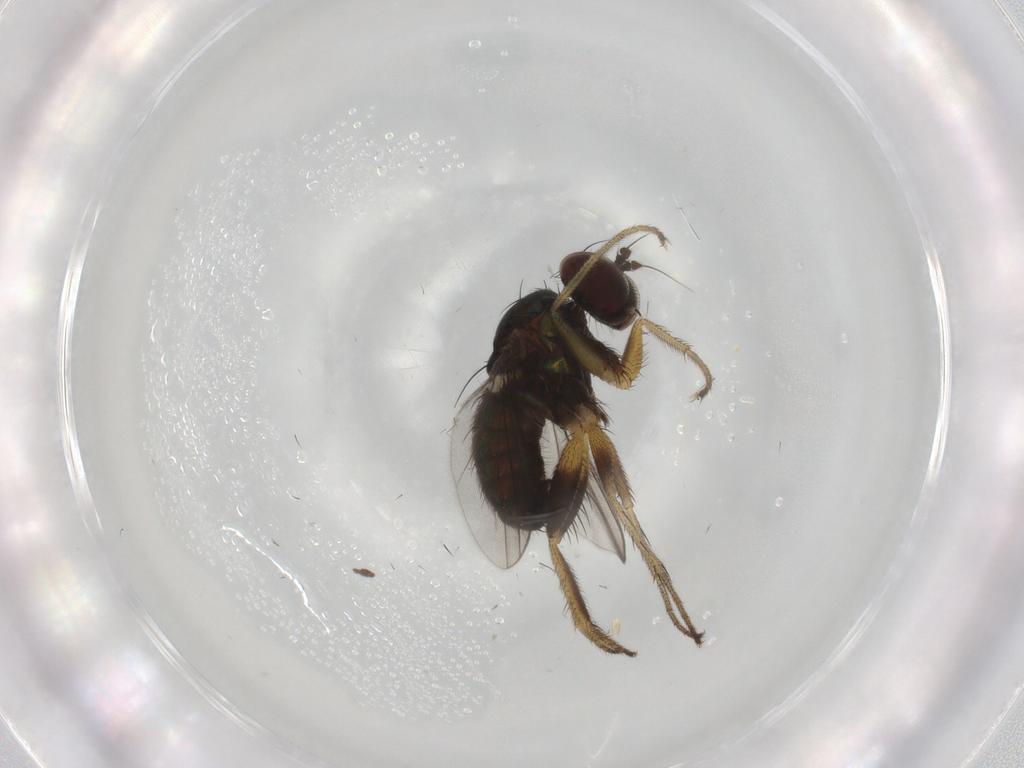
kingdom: Animalia
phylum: Arthropoda
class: Insecta
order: Diptera
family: Dolichopodidae
